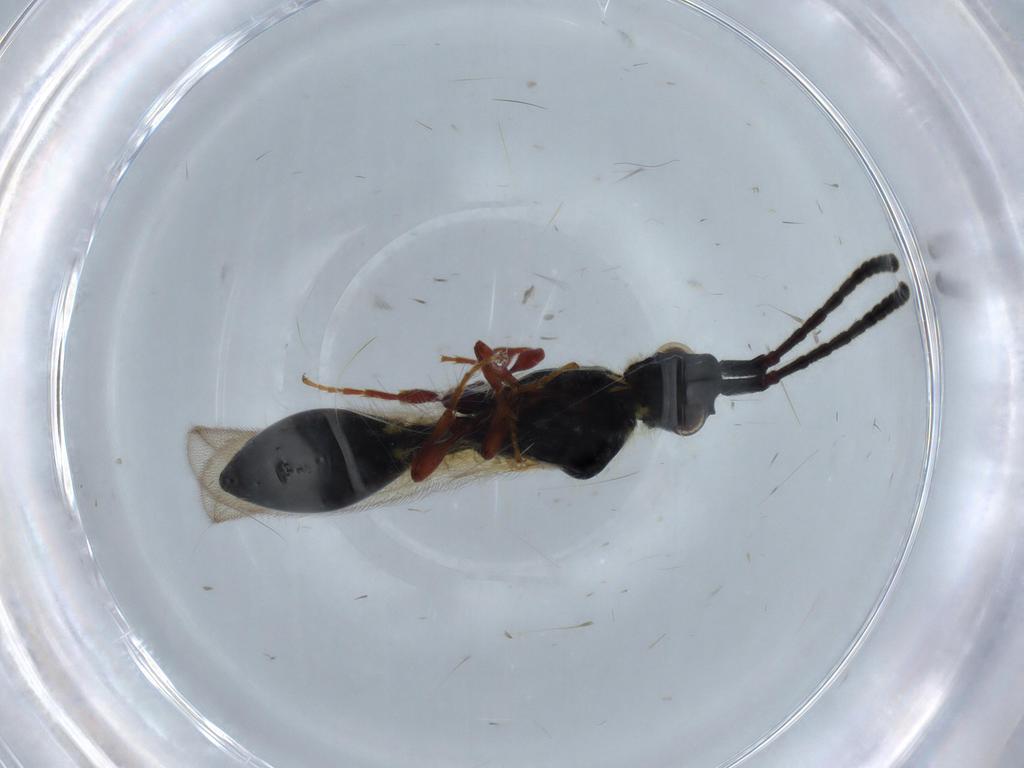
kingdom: Animalia
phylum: Arthropoda
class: Insecta
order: Hymenoptera
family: Diapriidae
